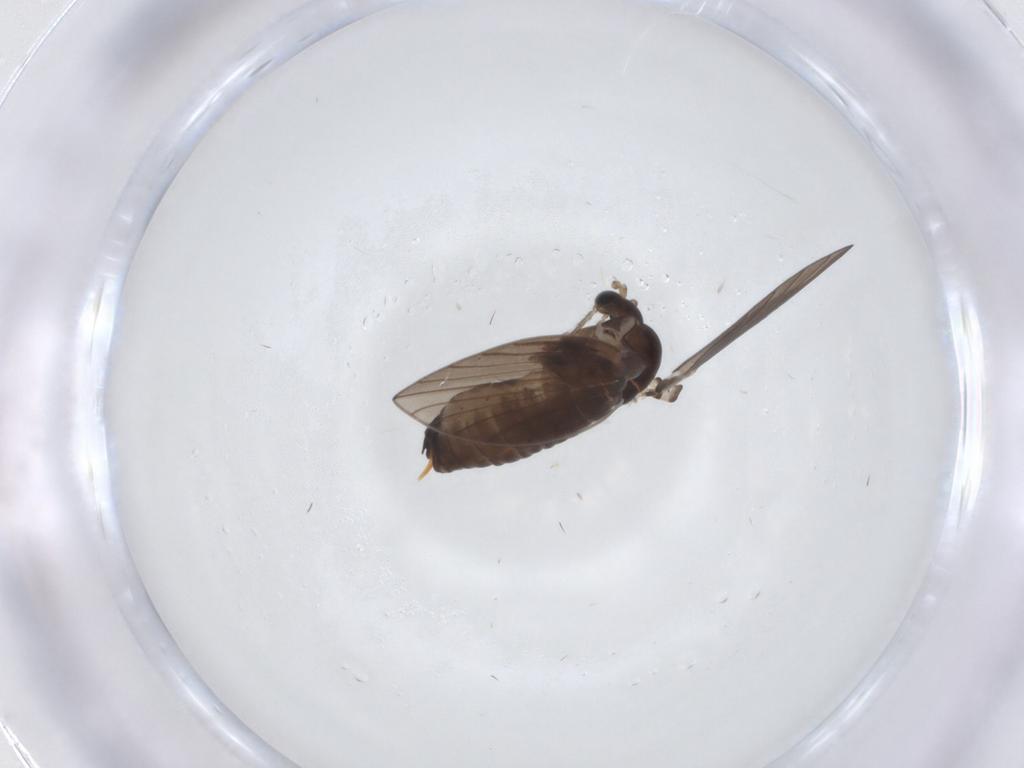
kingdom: Animalia
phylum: Arthropoda
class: Insecta
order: Diptera
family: Psychodidae
